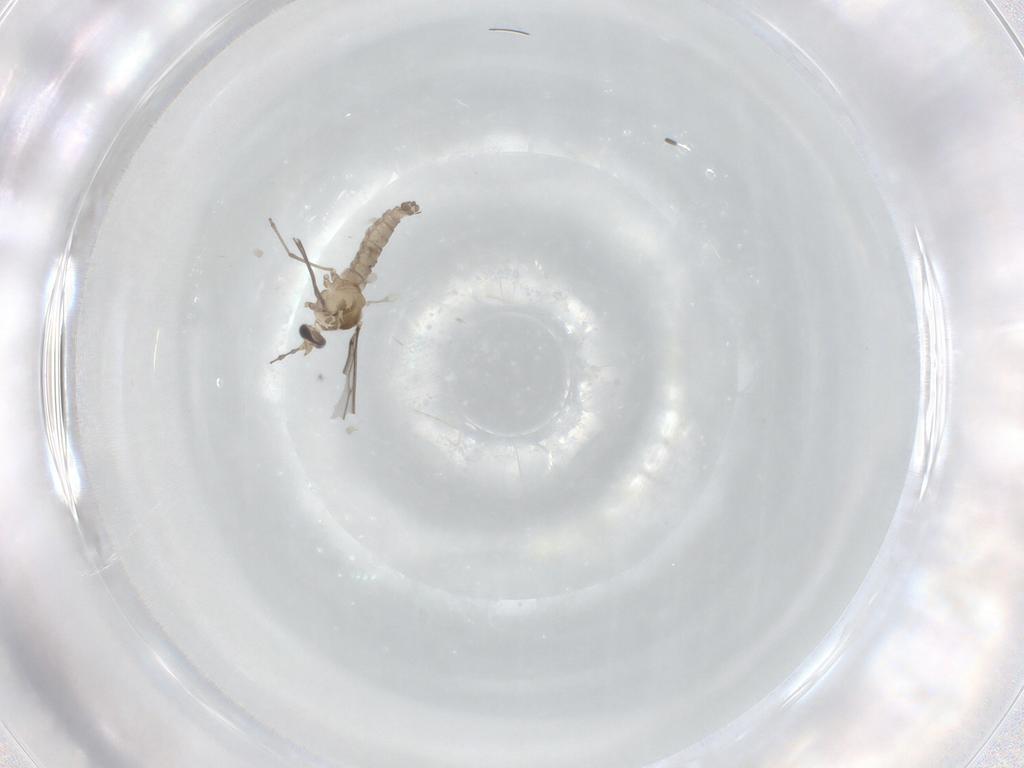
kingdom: Animalia
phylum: Arthropoda
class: Insecta
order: Diptera
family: Cecidomyiidae
